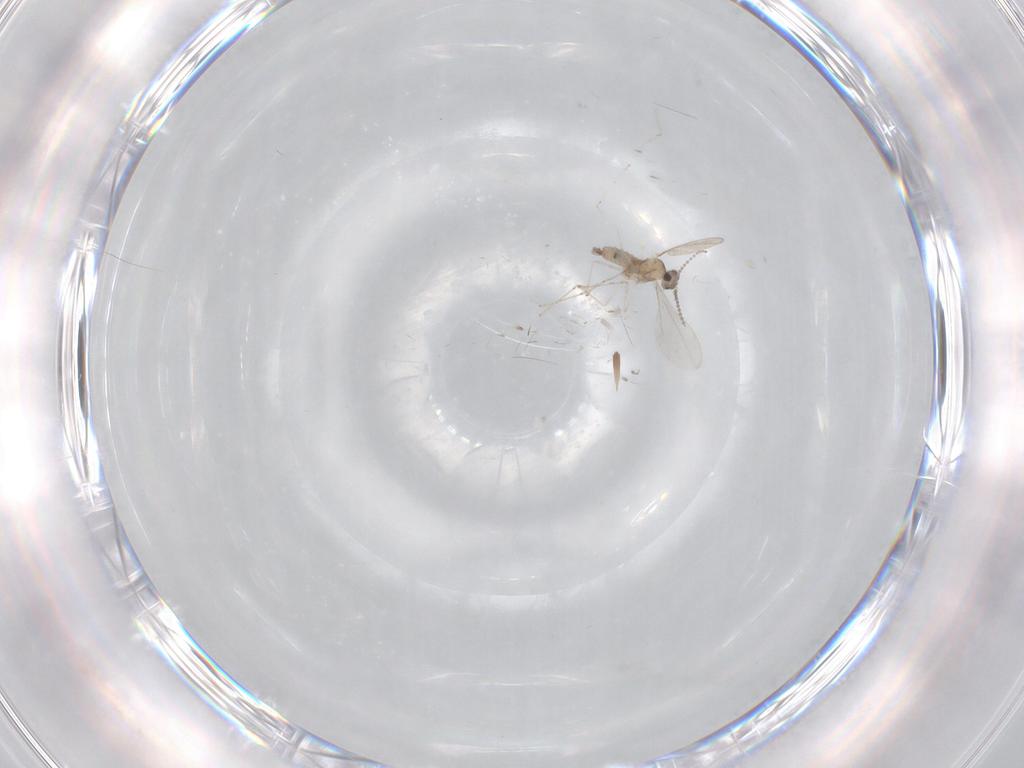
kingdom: Animalia
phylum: Arthropoda
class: Insecta
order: Diptera
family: Cecidomyiidae
